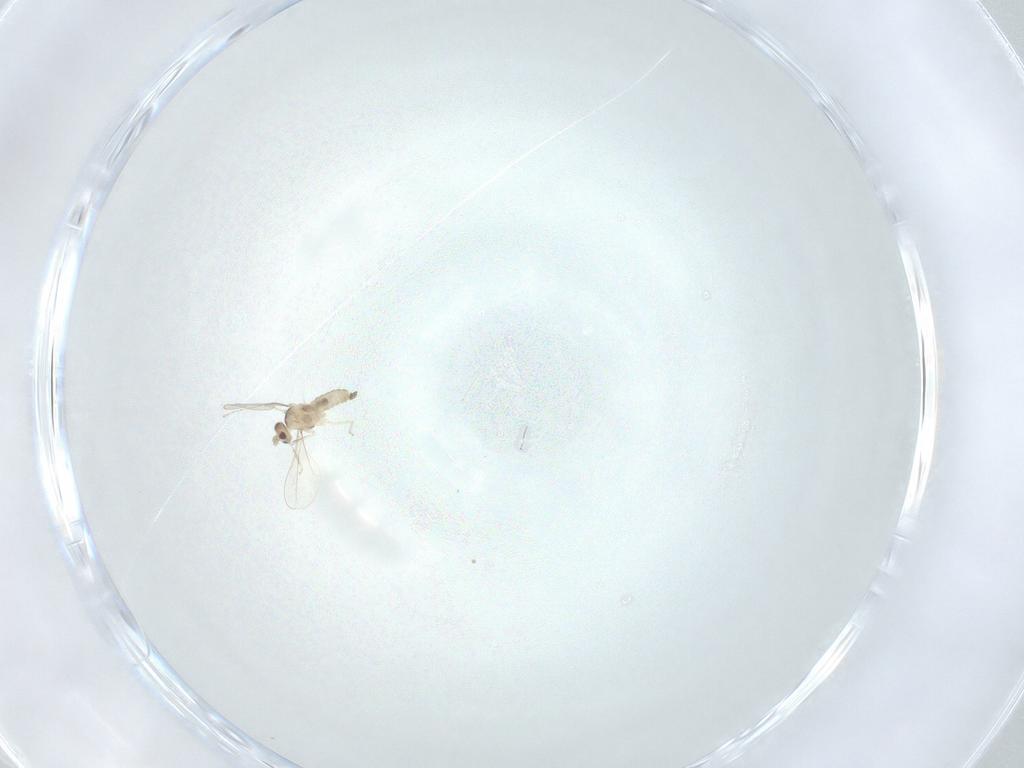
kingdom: Animalia
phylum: Arthropoda
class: Insecta
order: Diptera
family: Cecidomyiidae
